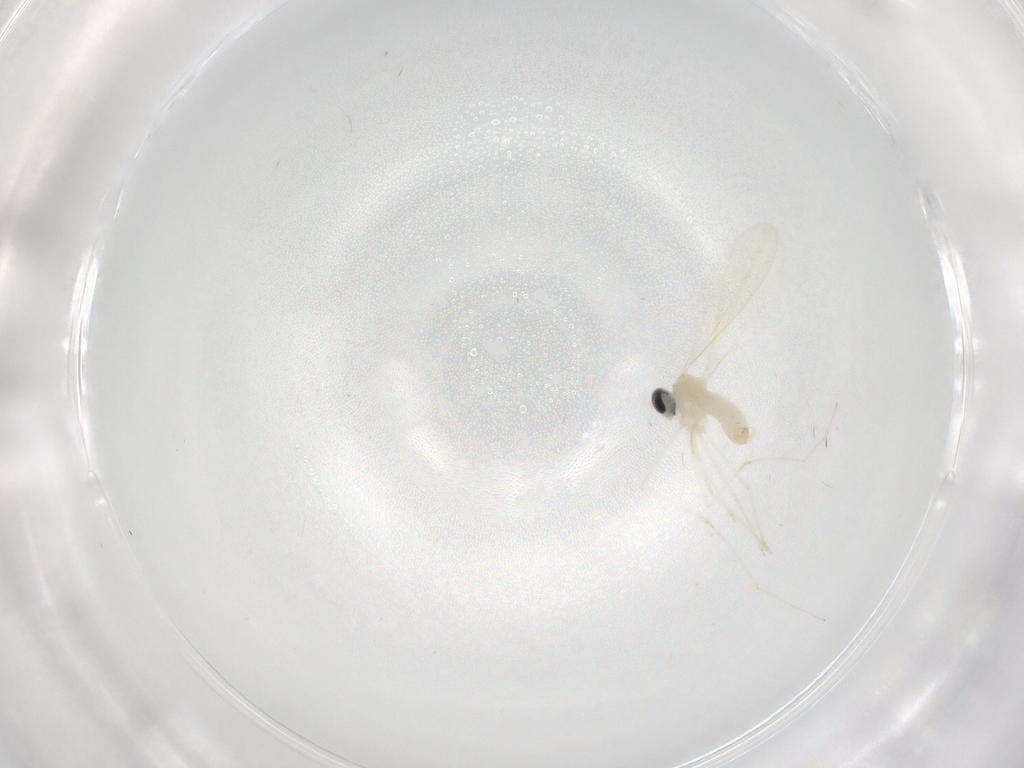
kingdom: Animalia
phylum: Arthropoda
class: Insecta
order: Diptera
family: Cecidomyiidae
